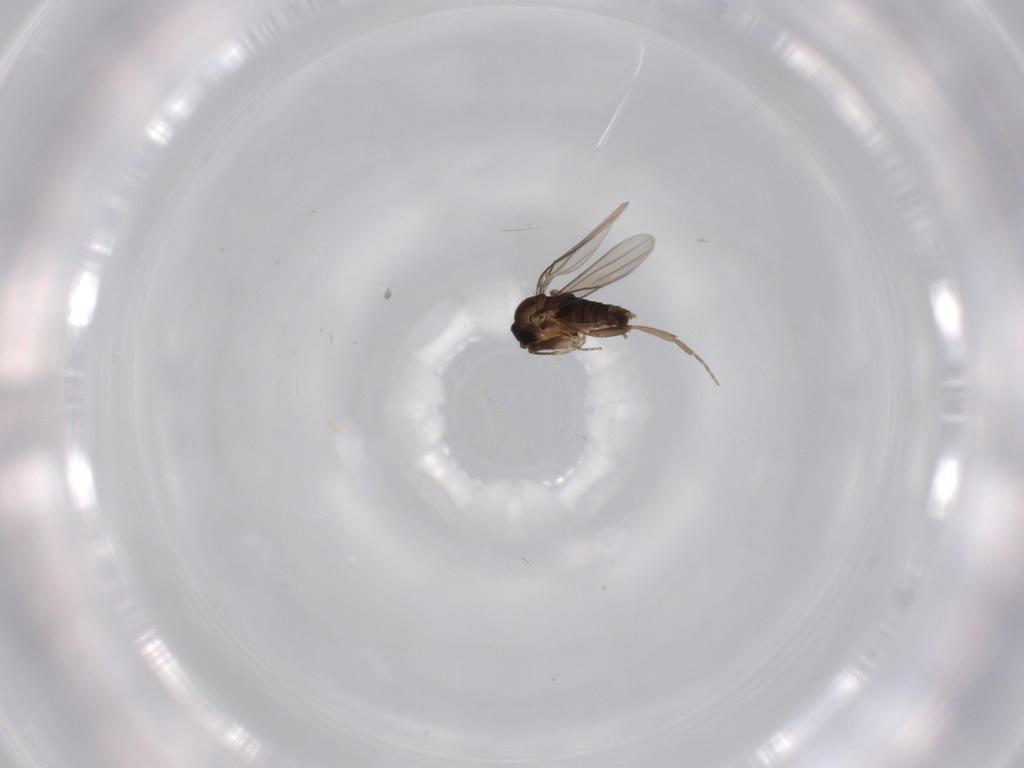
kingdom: Animalia
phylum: Arthropoda
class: Insecta
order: Diptera
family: Phoridae
